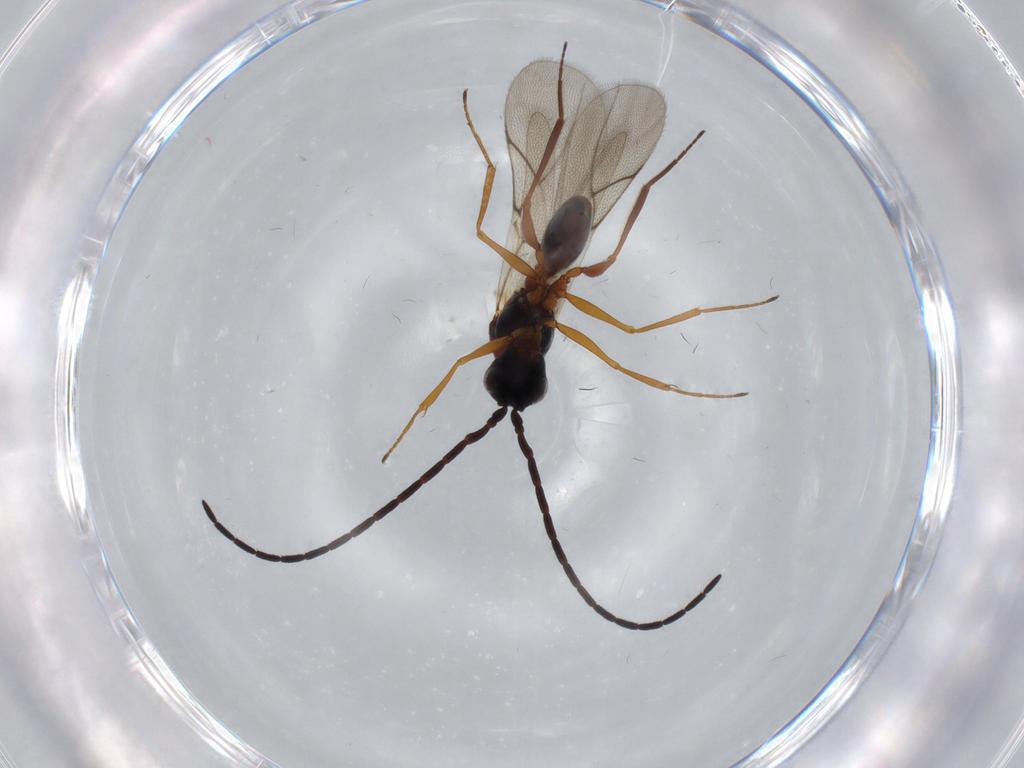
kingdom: Animalia
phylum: Arthropoda
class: Insecta
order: Hymenoptera
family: Figitidae
